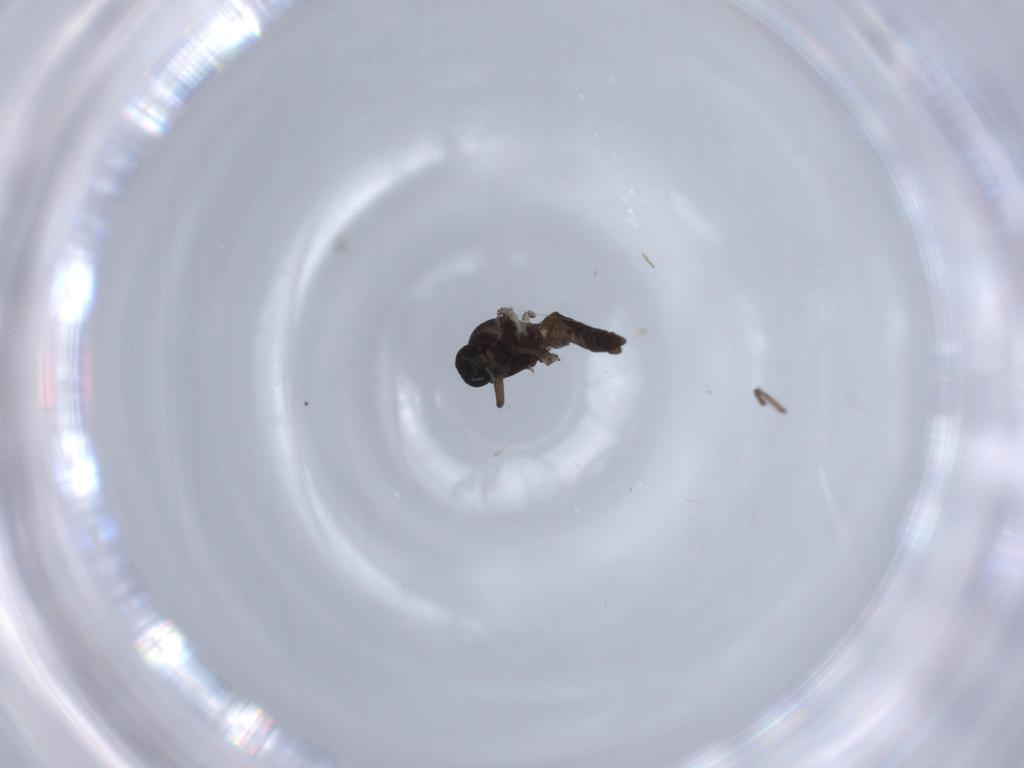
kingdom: Animalia
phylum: Arthropoda
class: Insecta
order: Diptera
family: Ceratopogonidae
